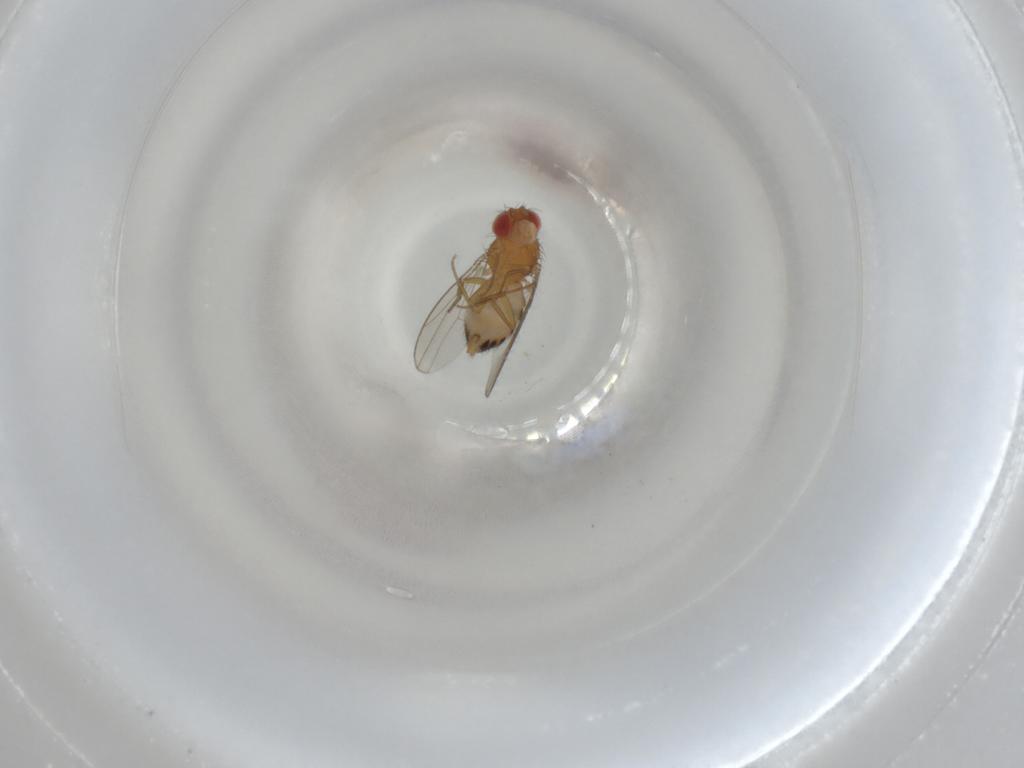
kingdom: Animalia
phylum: Arthropoda
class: Insecta
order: Diptera
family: Drosophilidae
